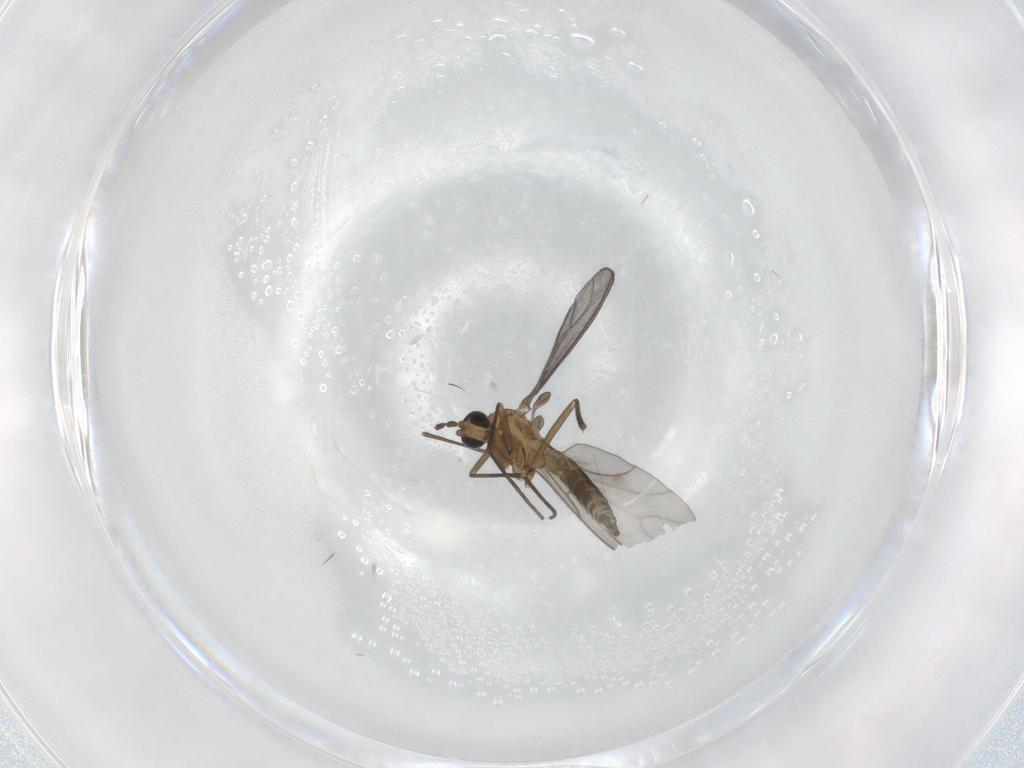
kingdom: Animalia
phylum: Arthropoda
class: Insecta
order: Diptera
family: Sciaridae
